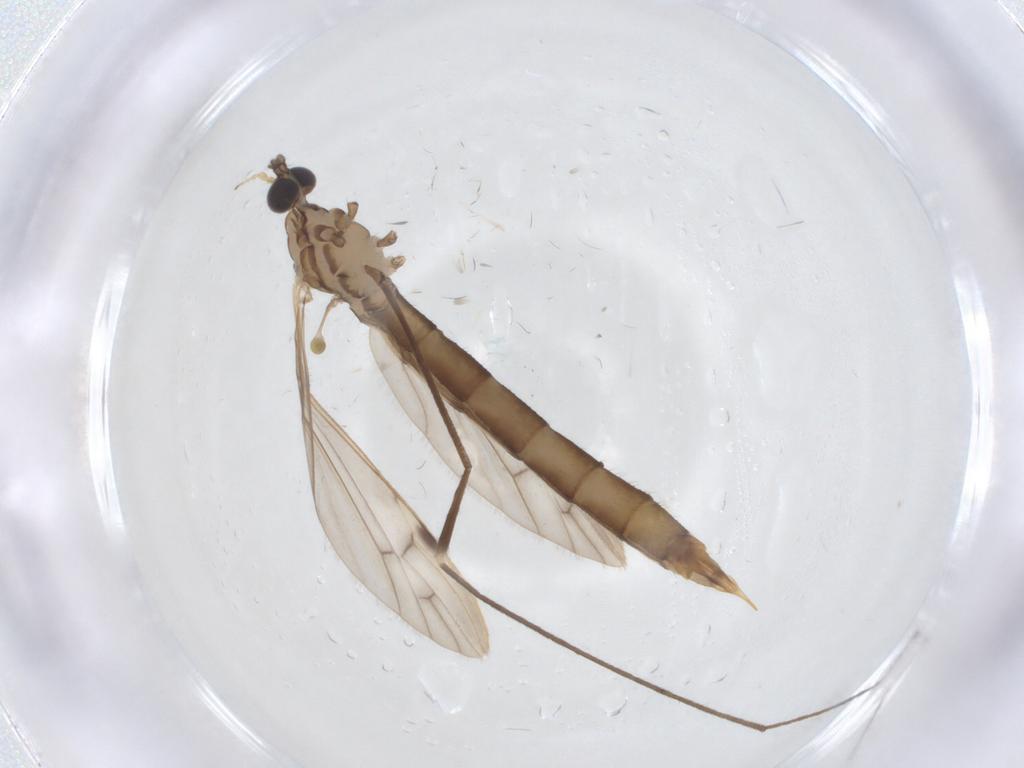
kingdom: Animalia
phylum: Arthropoda
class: Insecta
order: Diptera
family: Limoniidae
